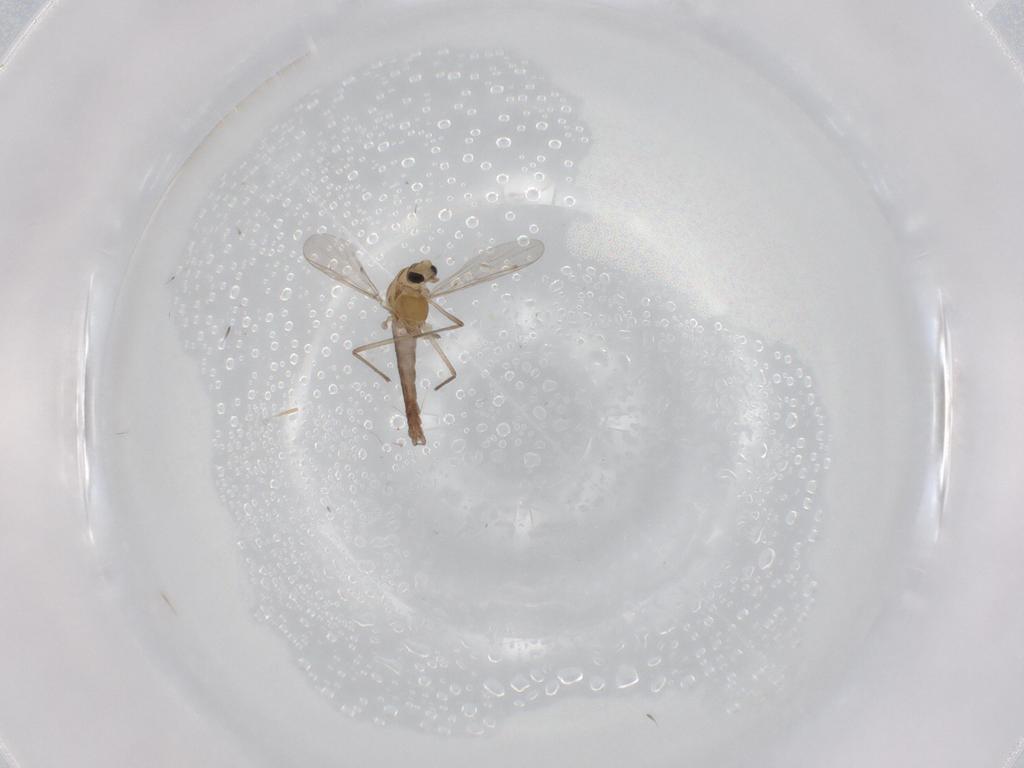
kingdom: Animalia
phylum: Arthropoda
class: Insecta
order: Diptera
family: Chironomidae
